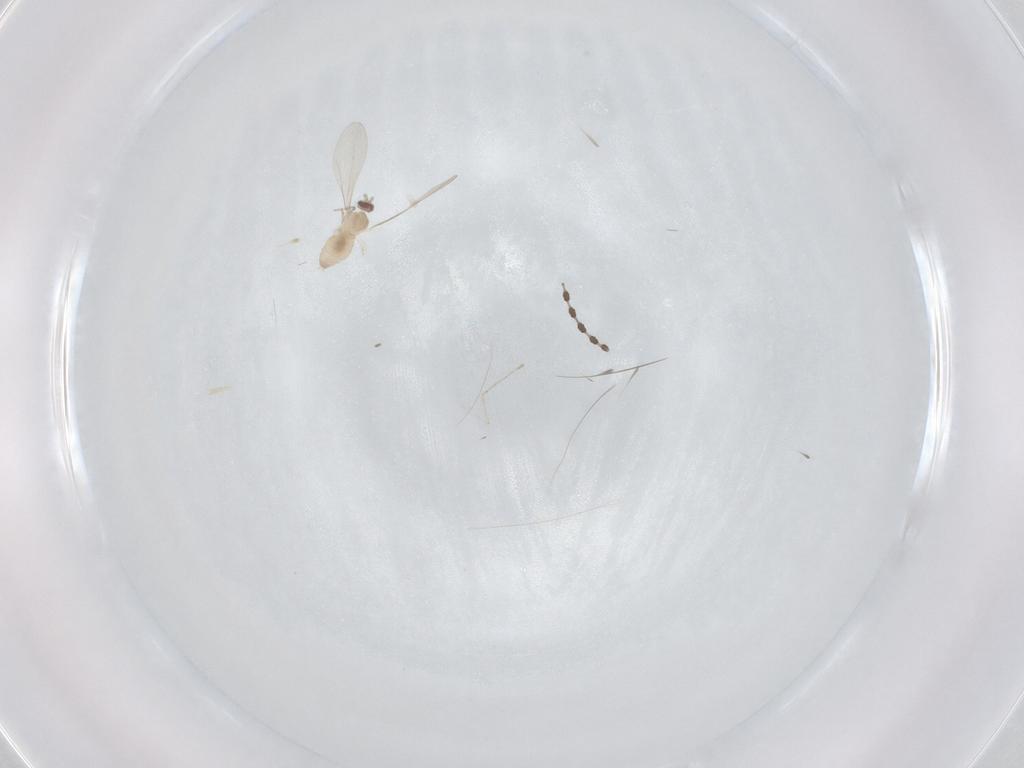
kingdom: Animalia
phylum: Arthropoda
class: Insecta
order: Diptera
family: Cecidomyiidae
